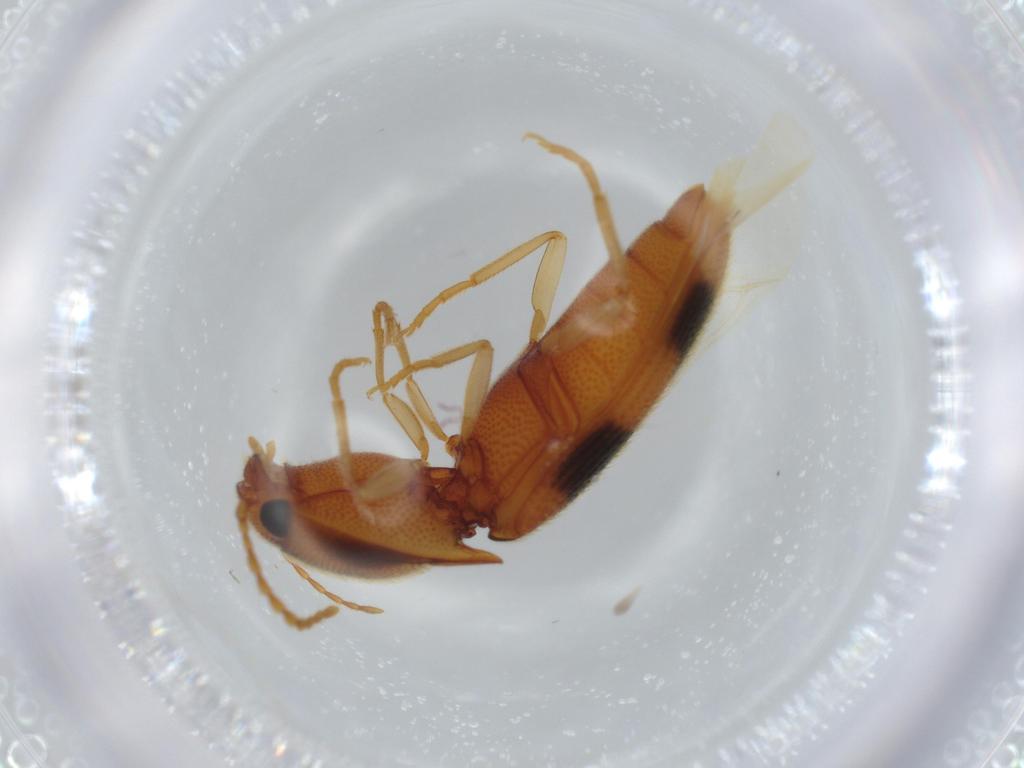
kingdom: Animalia
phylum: Arthropoda
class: Insecta
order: Coleoptera
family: Elateridae
